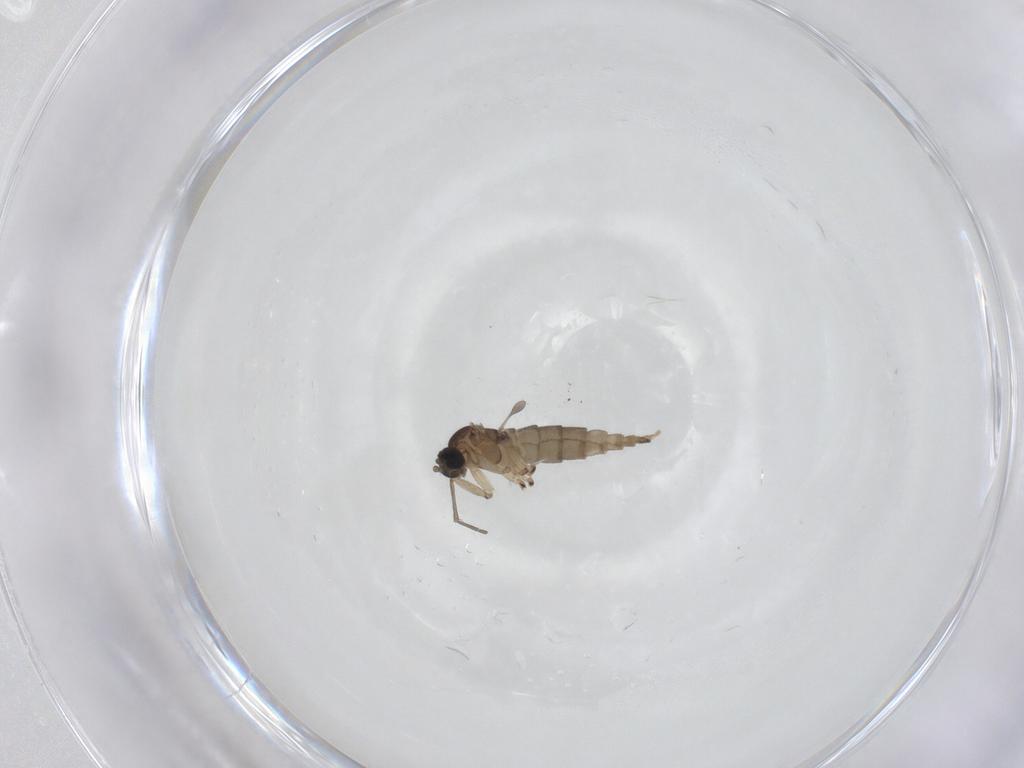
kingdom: Animalia
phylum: Arthropoda
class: Insecta
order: Diptera
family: Sciaridae
